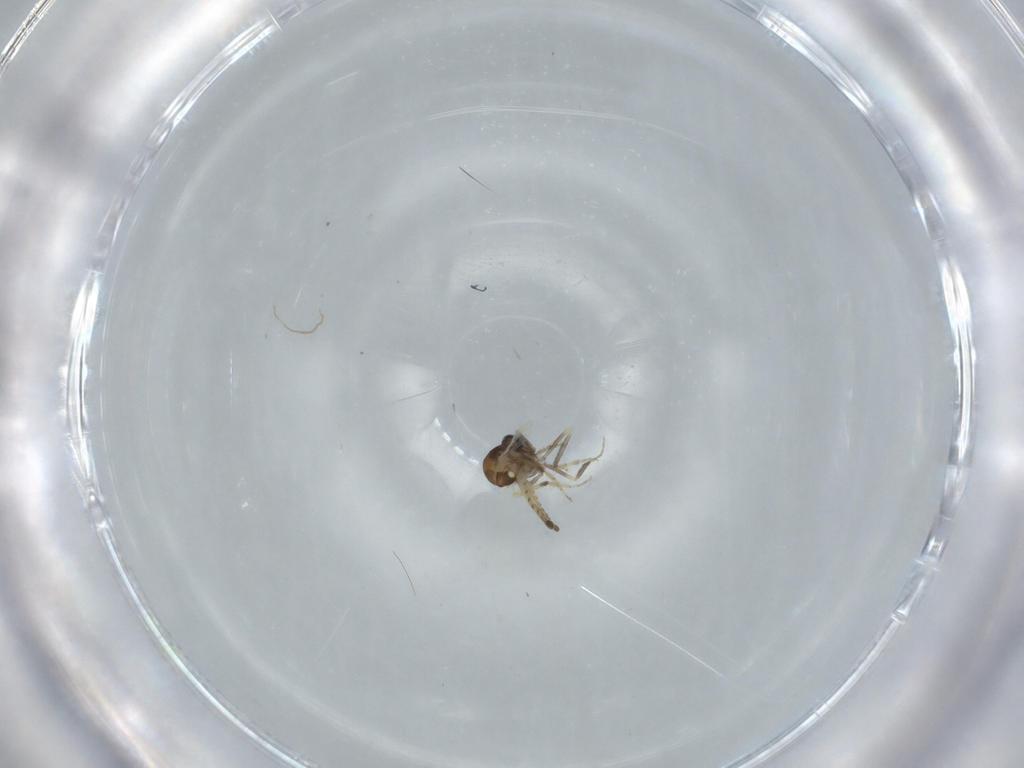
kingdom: Animalia
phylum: Arthropoda
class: Insecta
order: Diptera
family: Ceratopogonidae
